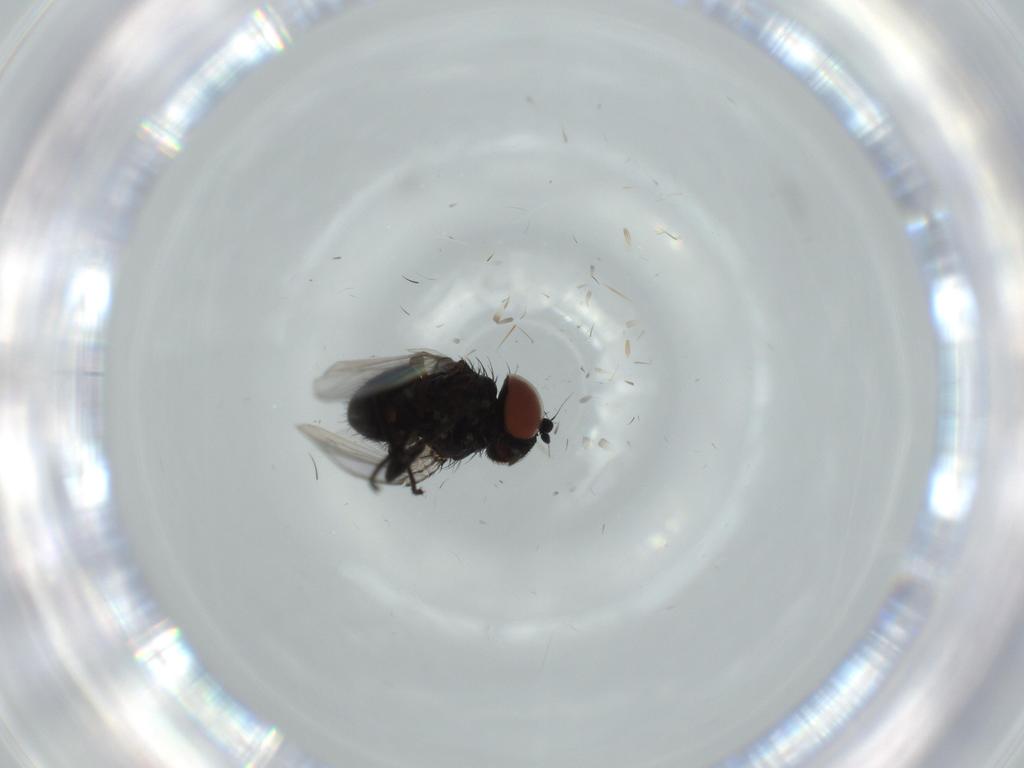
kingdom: Animalia
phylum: Arthropoda
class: Insecta
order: Diptera
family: Milichiidae
